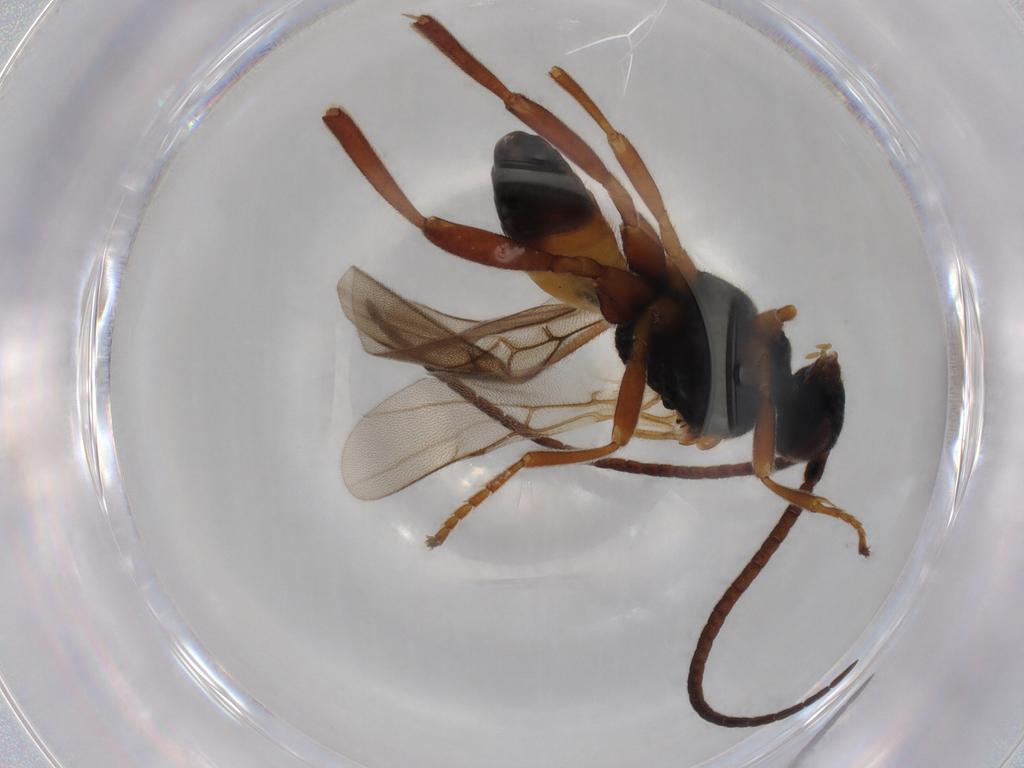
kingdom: Animalia
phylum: Arthropoda
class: Insecta
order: Hymenoptera
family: Braconidae
